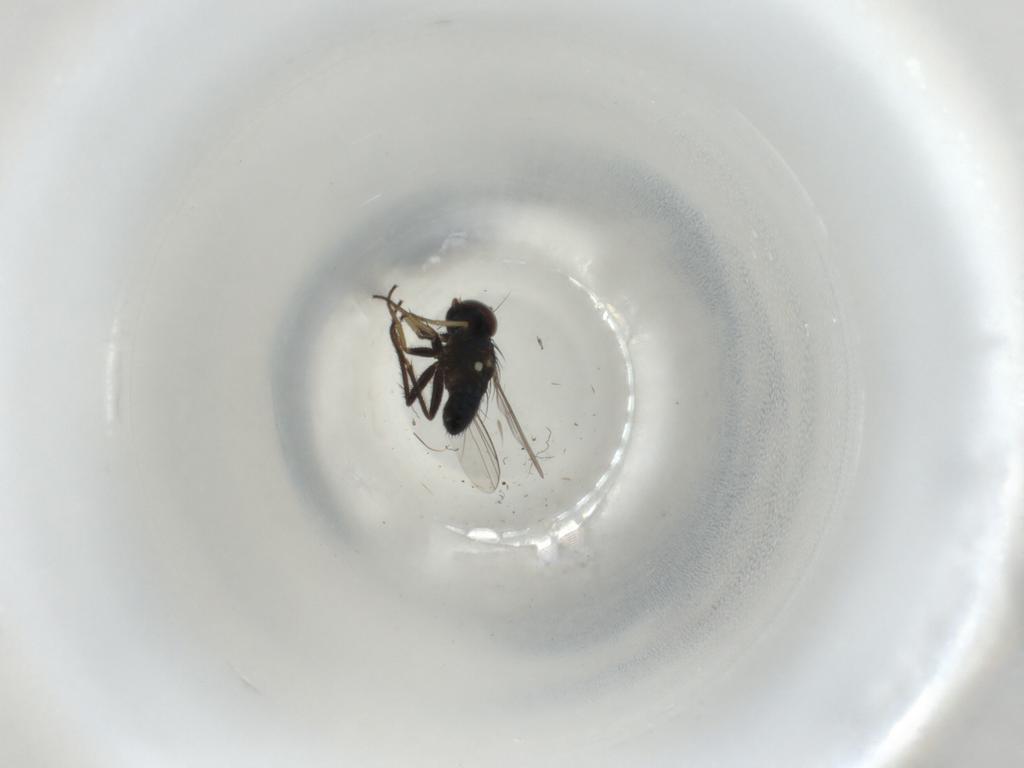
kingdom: Animalia
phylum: Arthropoda
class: Insecta
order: Diptera
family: Dolichopodidae
